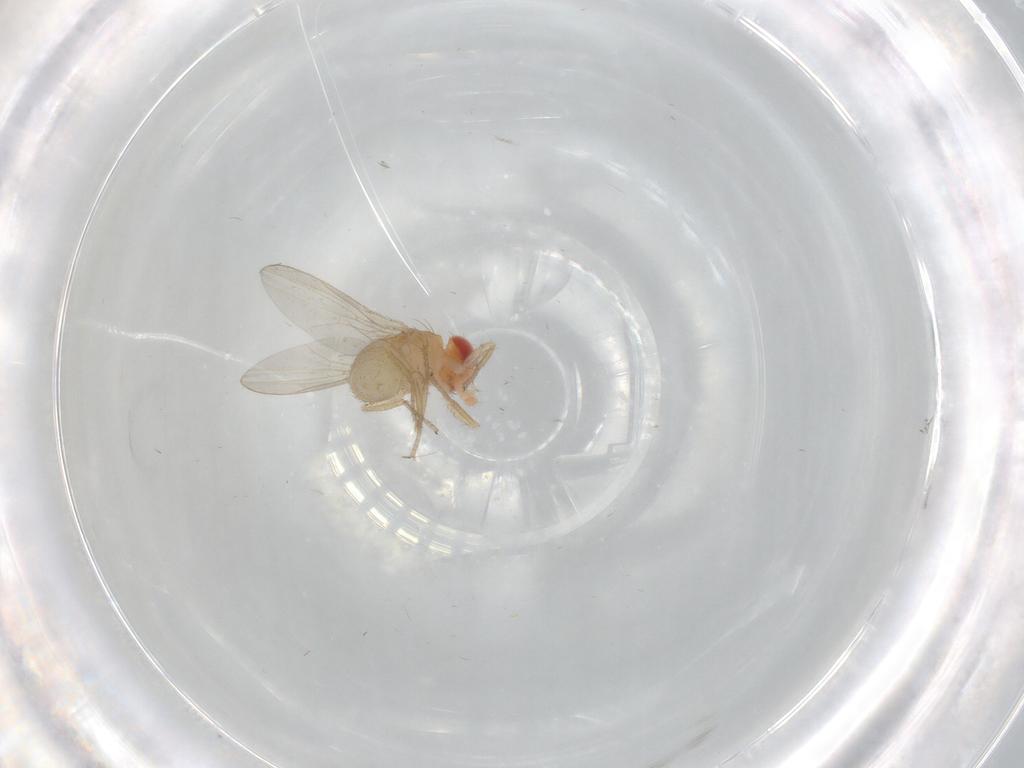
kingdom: Animalia
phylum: Arthropoda
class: Insecta
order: Diptera
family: Drosophilidae
